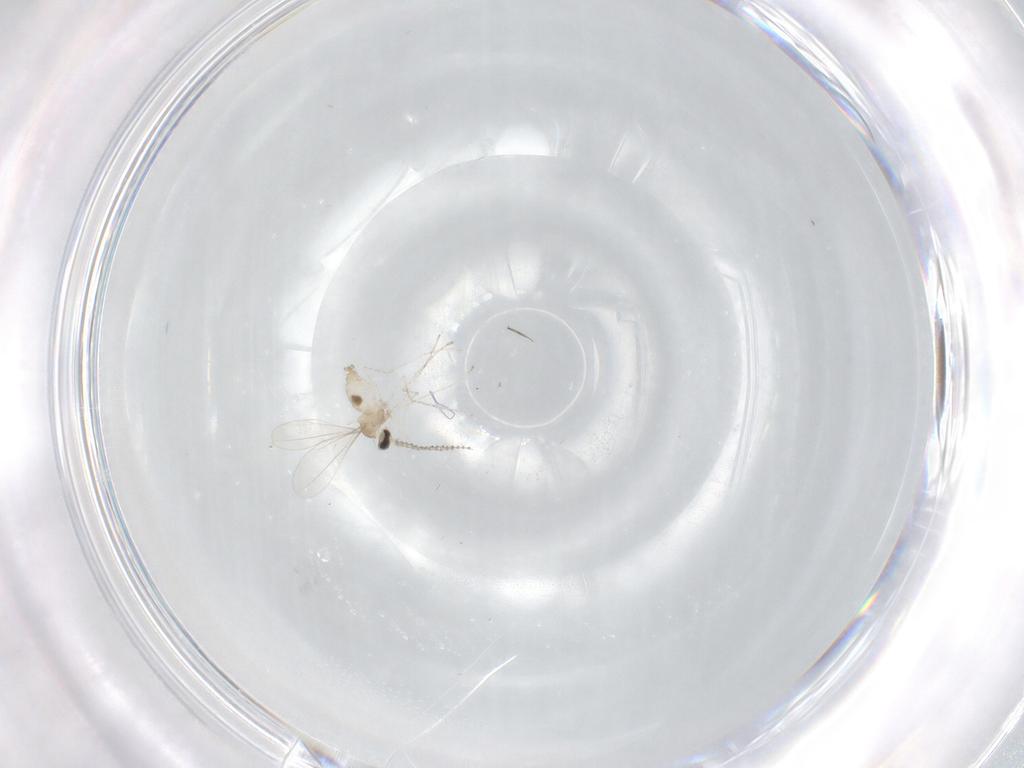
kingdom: Animalia
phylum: Arthropoda
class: Insecta
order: Diptera
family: Cecidomyiidae
